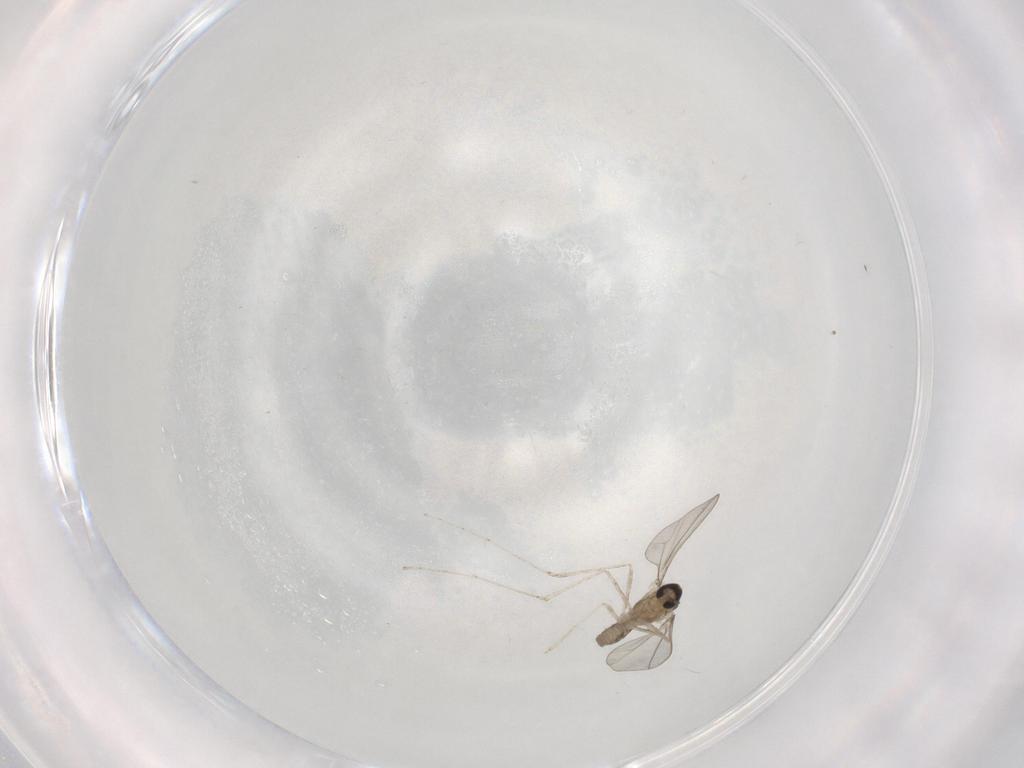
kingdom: Animalia
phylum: Arthropoda
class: Insecta
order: Diptera
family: Cecidomyiidae
